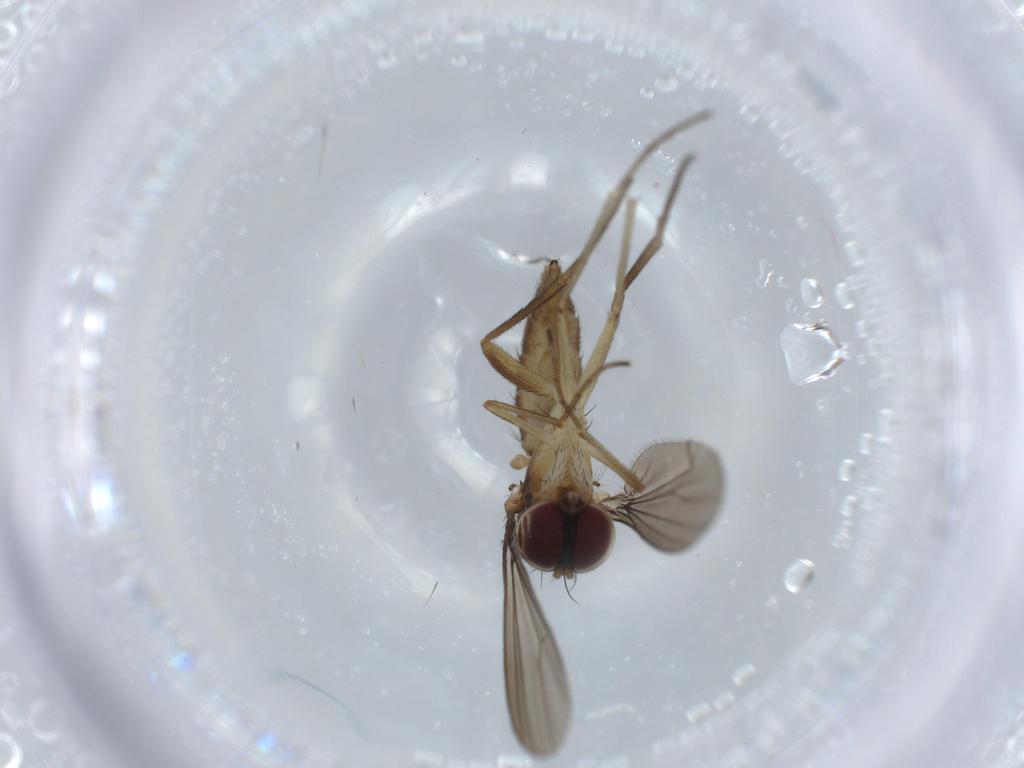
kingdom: Animalia
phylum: Arthropoda
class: Insecta
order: Diptera
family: Dolichopodidae
